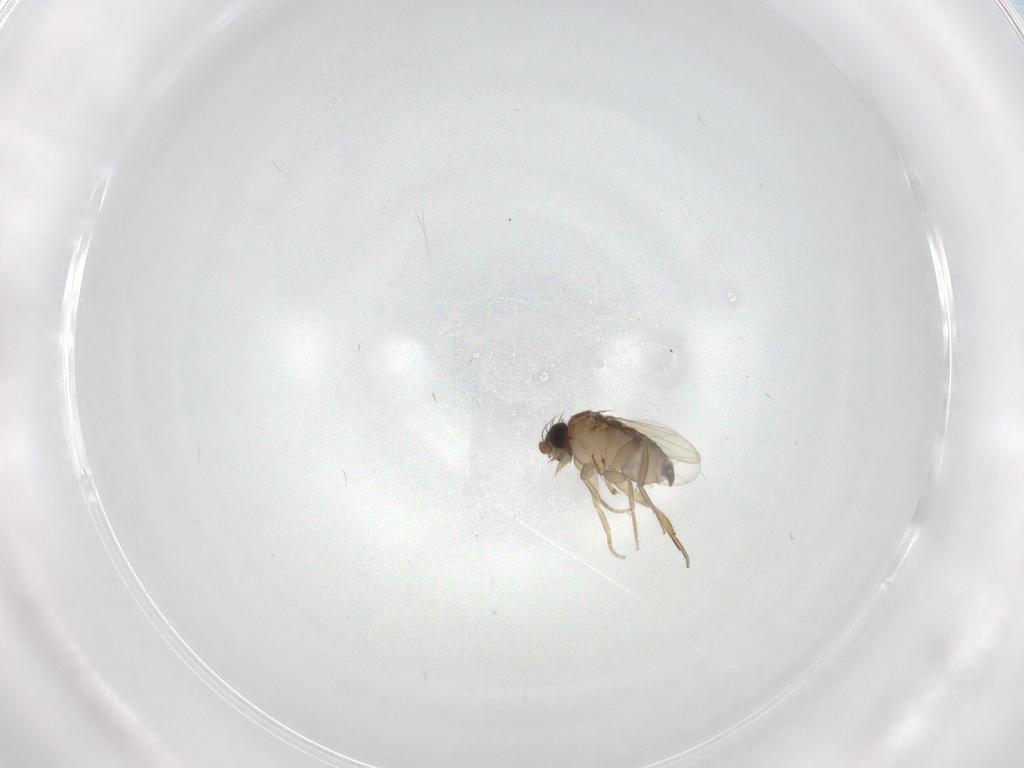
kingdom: Animalia
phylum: Arthropoda
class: Insecta
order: Diptera
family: Phoridae
